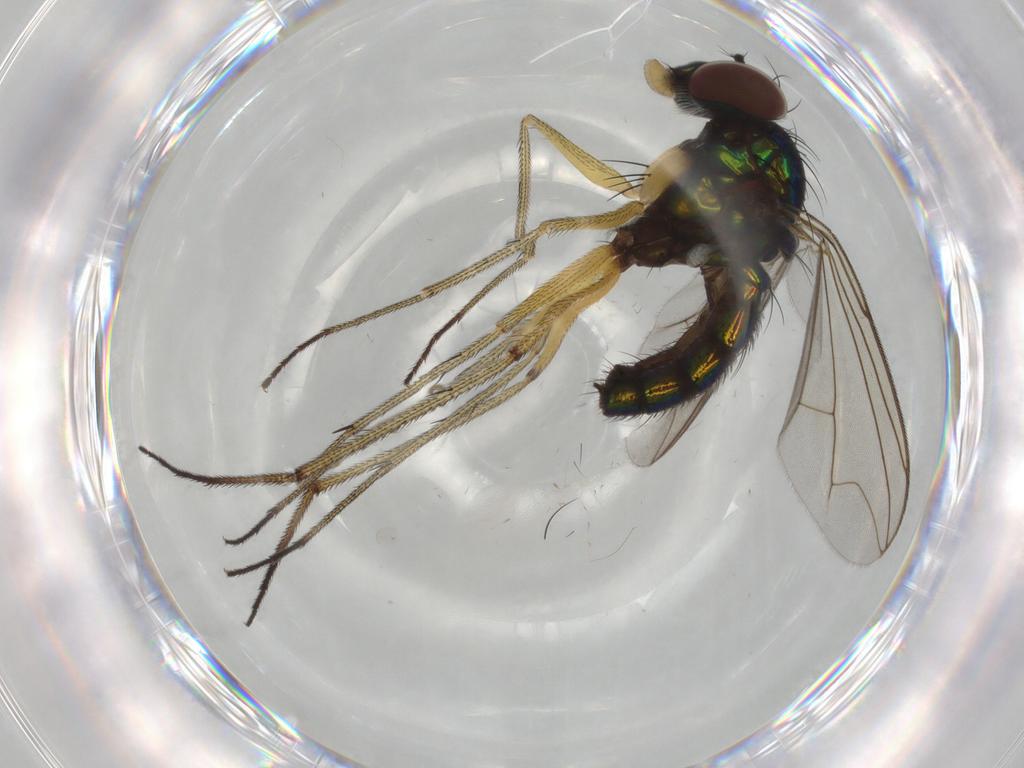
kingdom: Animalia
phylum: Arthropoda
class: Insecta
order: Diptera
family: Dolichopodidae
